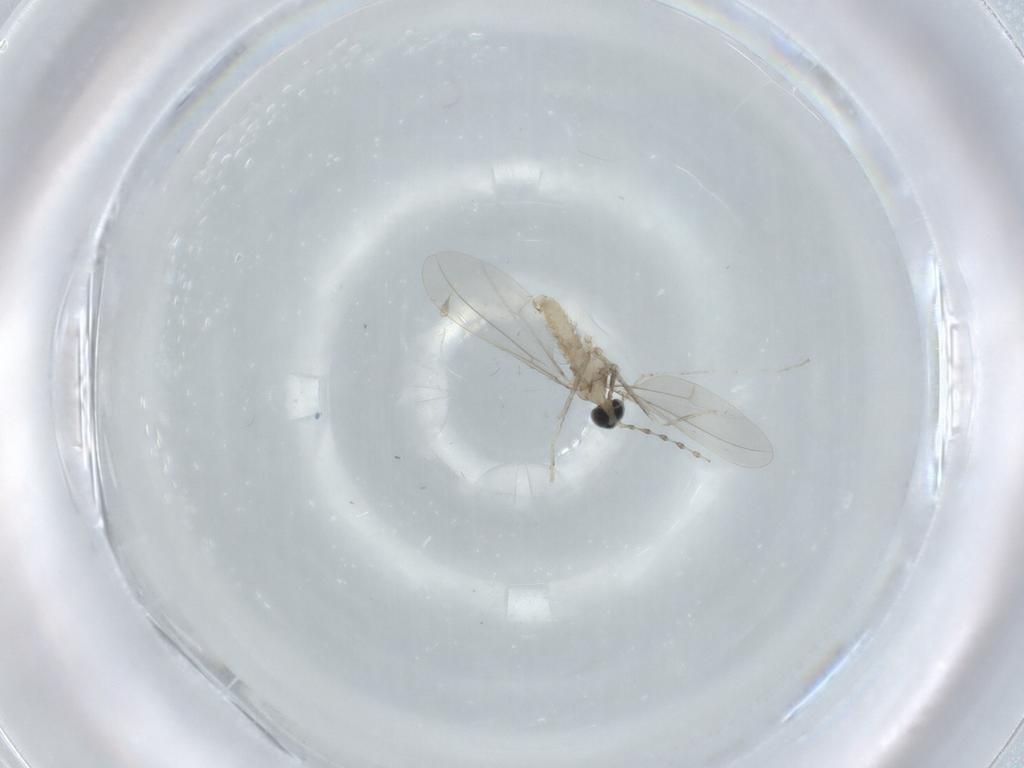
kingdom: Animalia
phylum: Arthropoda
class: Insecta
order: Diptera
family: Cecidomyiidae
